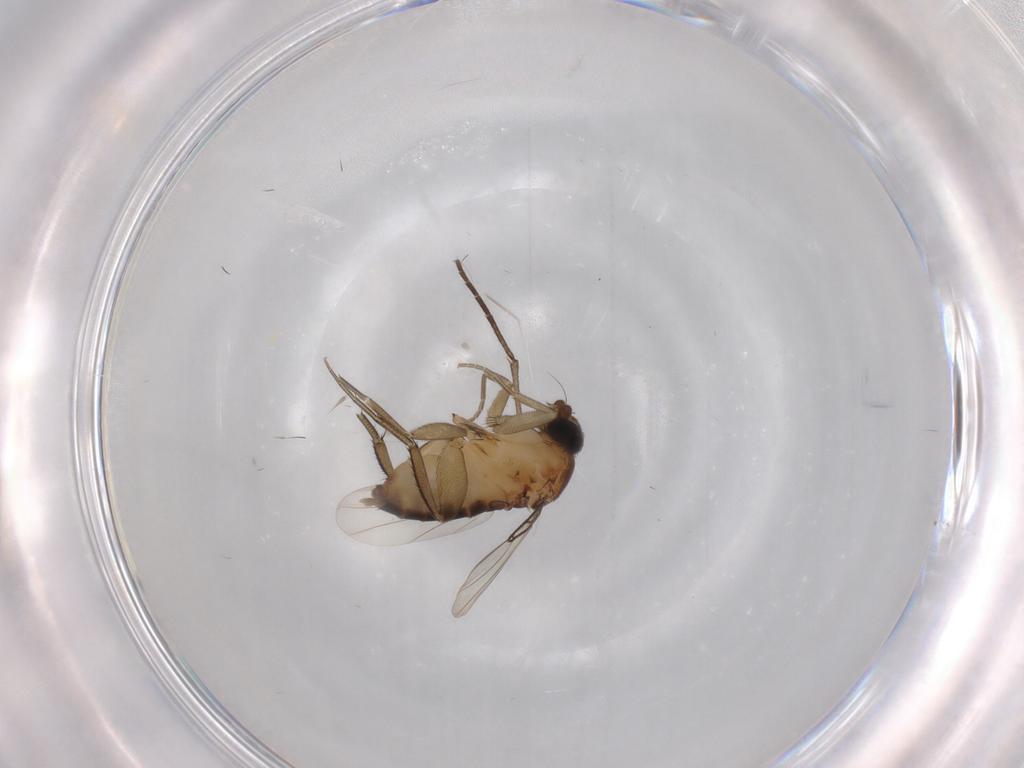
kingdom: Animalia
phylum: Arthropoda
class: Insecta
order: Diptera
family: Phoridae
